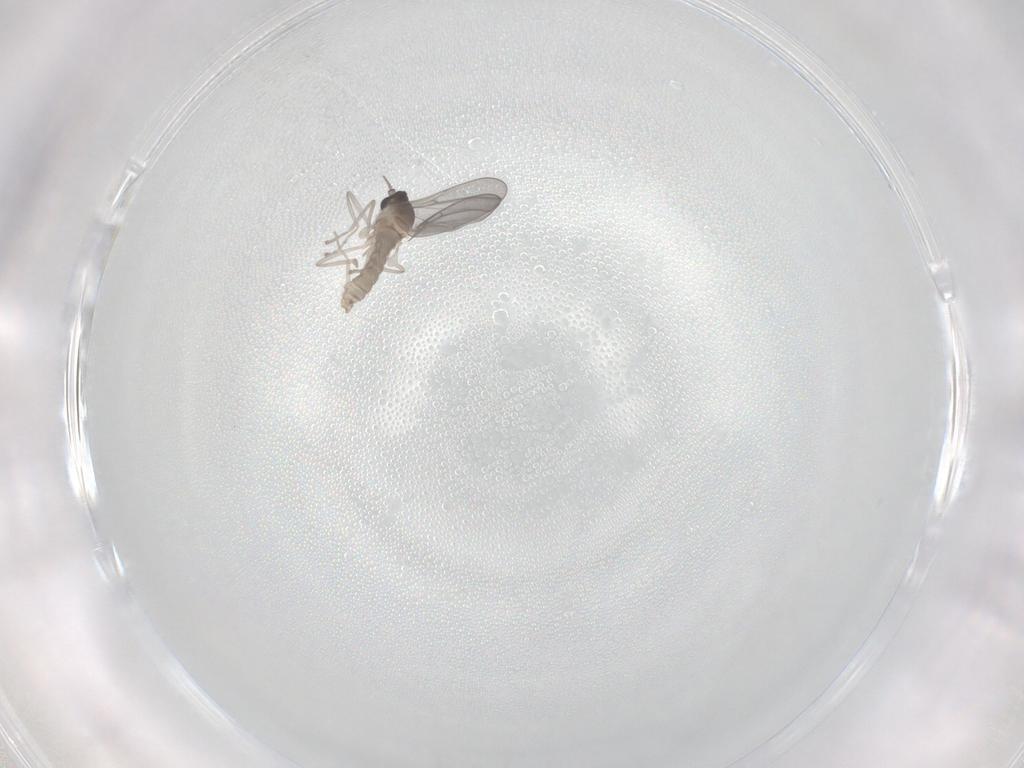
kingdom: Animalia
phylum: Arthropoda
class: Insecta
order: Diptera
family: Cecidomyiidae
